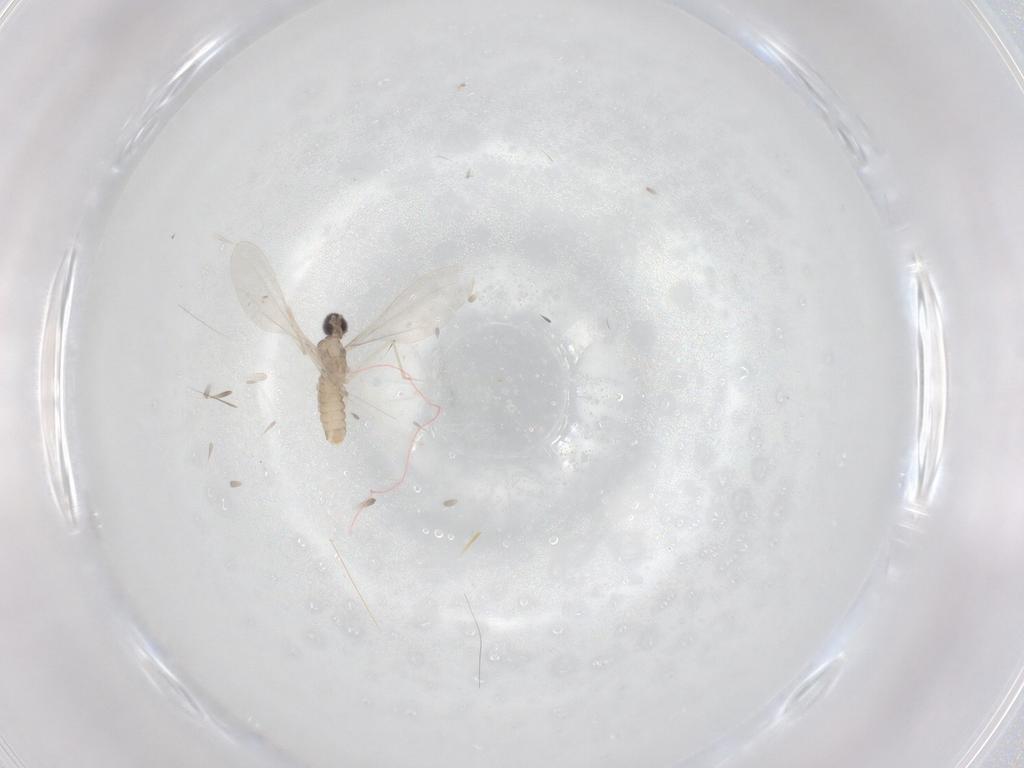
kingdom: Animalia
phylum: Arthropoda
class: Insecta
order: Diptera
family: Cecidomyiidae
